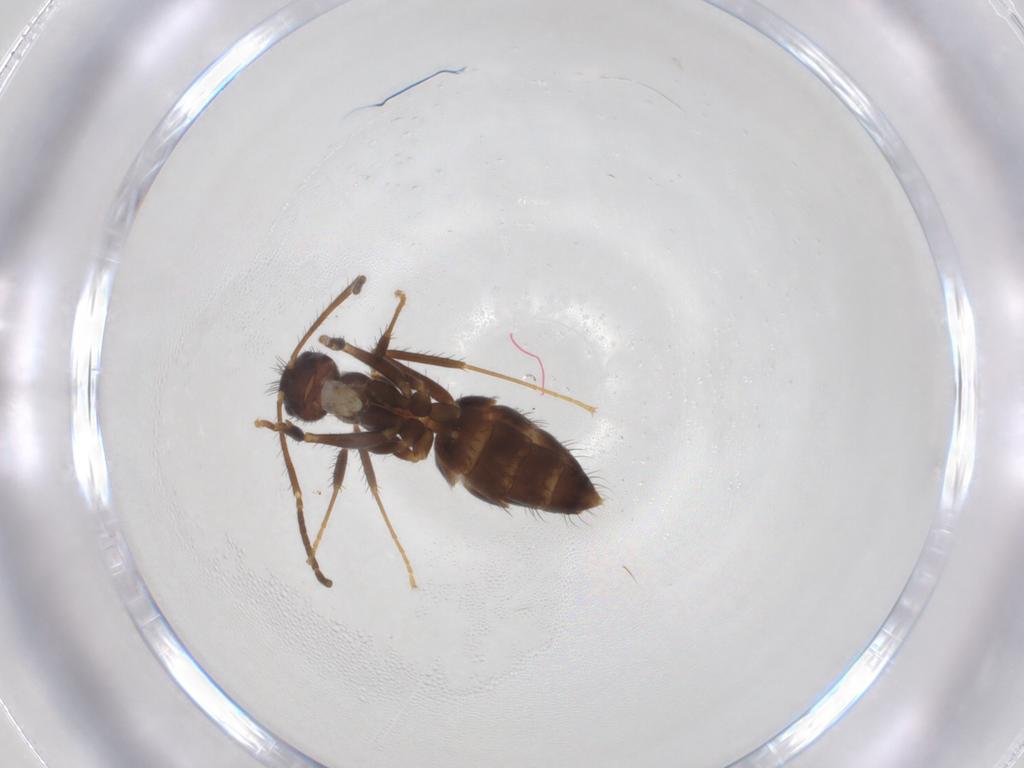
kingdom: Animalia
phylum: Arthropoda
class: Insecta
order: Hymenoptera
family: Formicidae
